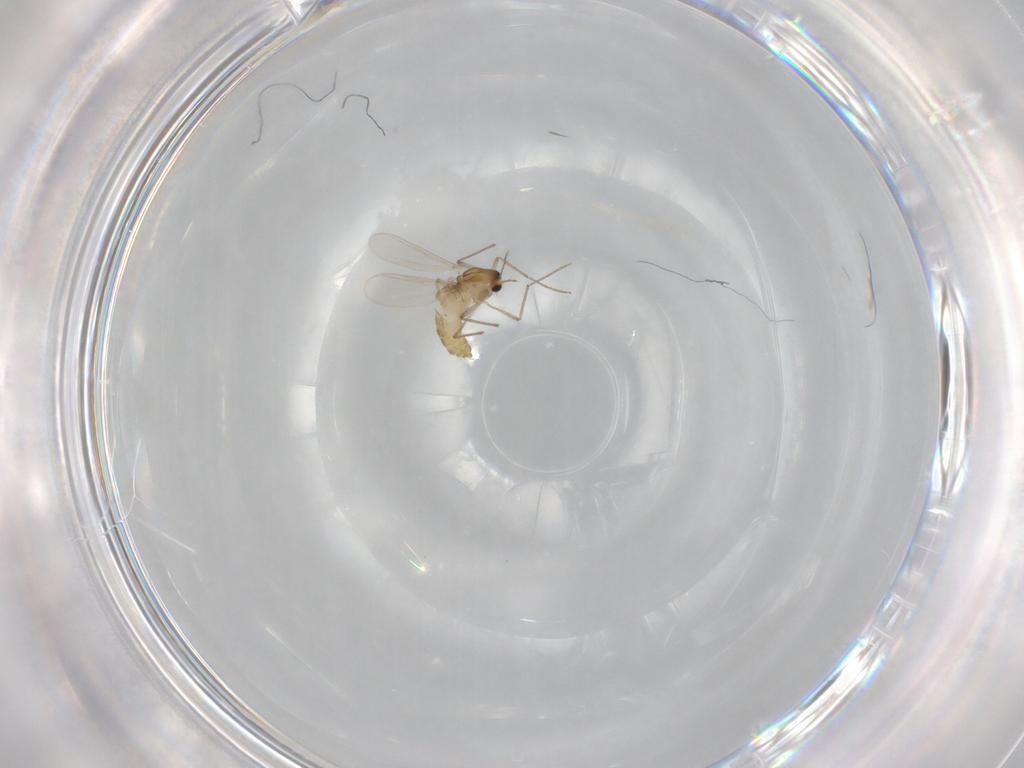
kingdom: Animalia
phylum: Arthropoda
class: Insecta
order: Diptera
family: Chironomidae
